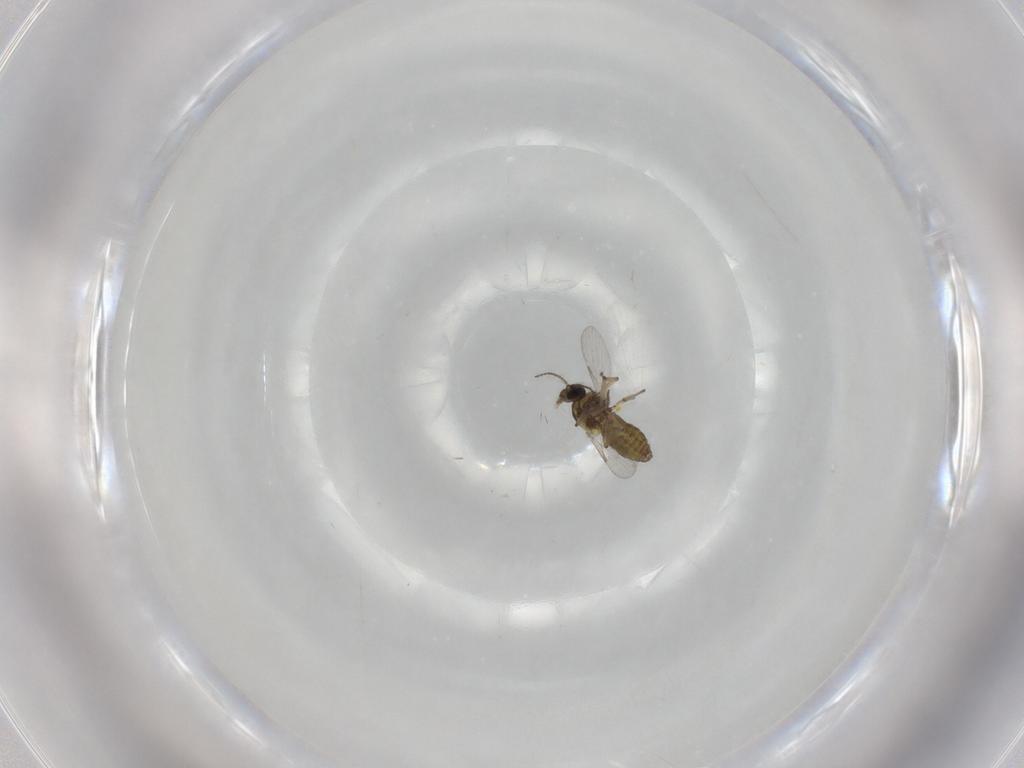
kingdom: Animalia
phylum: Arthropoda
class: Insecta
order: Diptera
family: Ceratopogonidae
